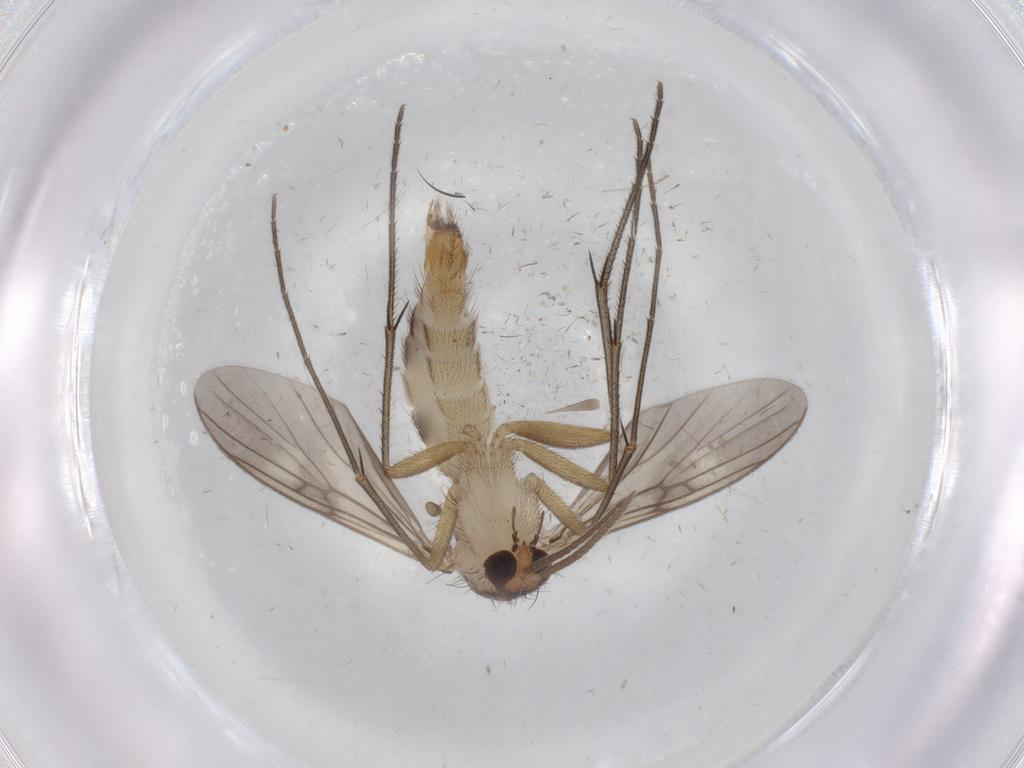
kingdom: Animalia
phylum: Arthropoda
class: Insecta
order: Diptera
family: Mycetophilidae
